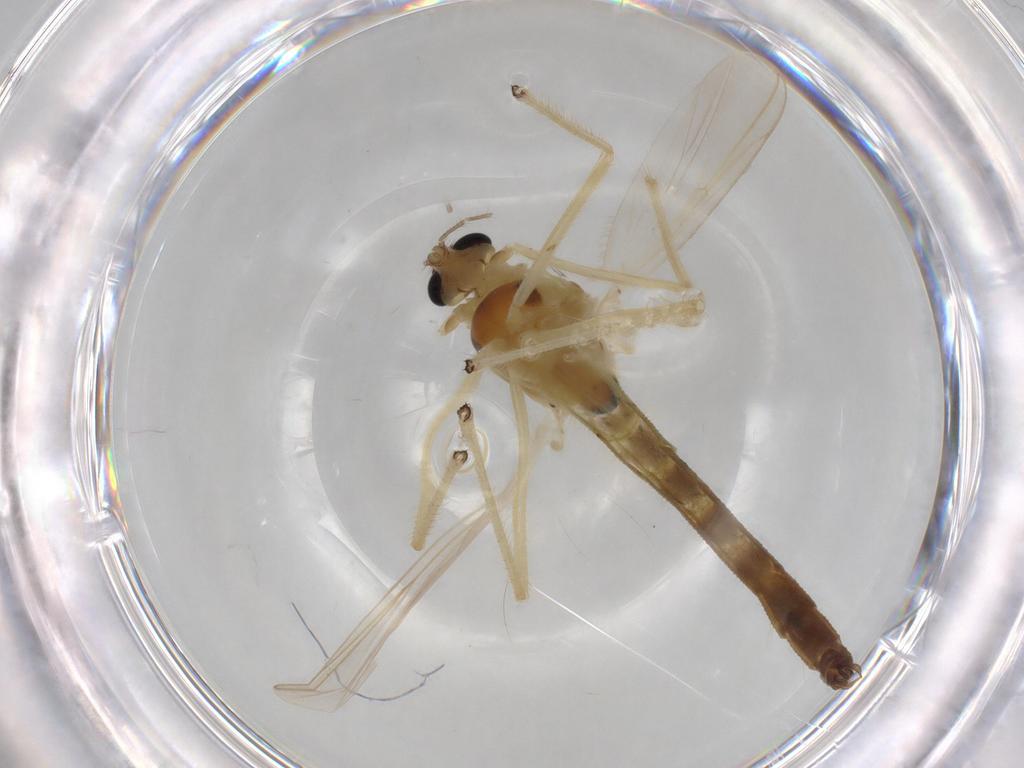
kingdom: Animalia
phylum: Arthropoda
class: Insecta
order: Diptera
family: Chironomidae
